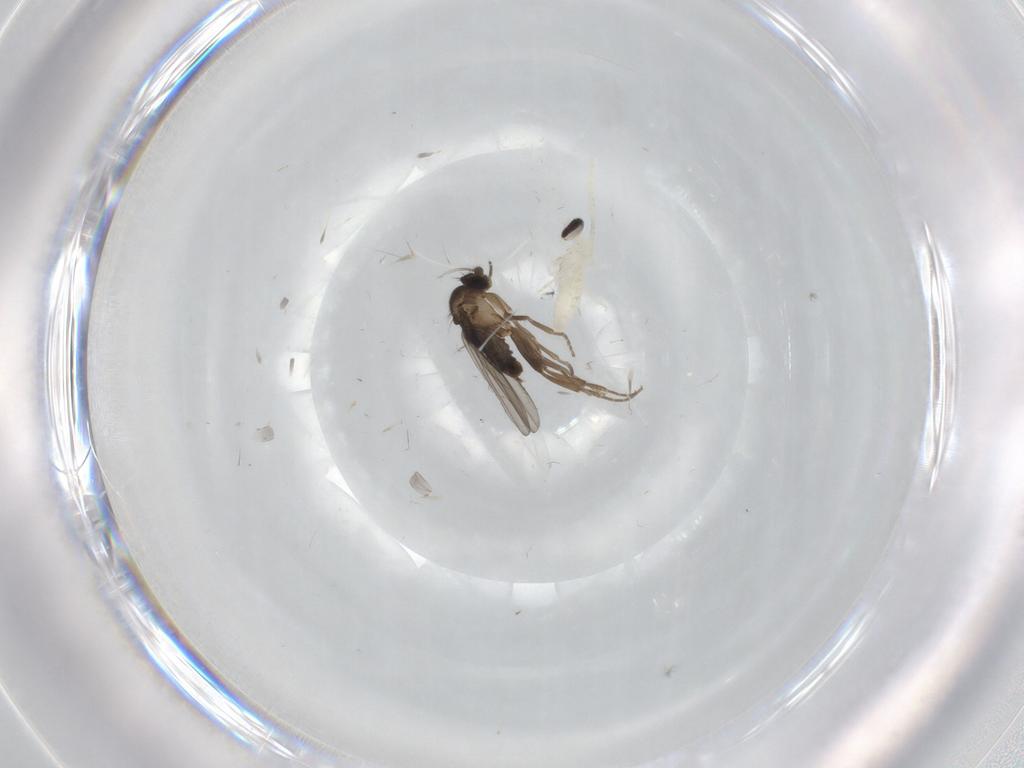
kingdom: Animalia
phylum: Arthropoda
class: Insecta
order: Diptera
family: Cecidomyiidae
